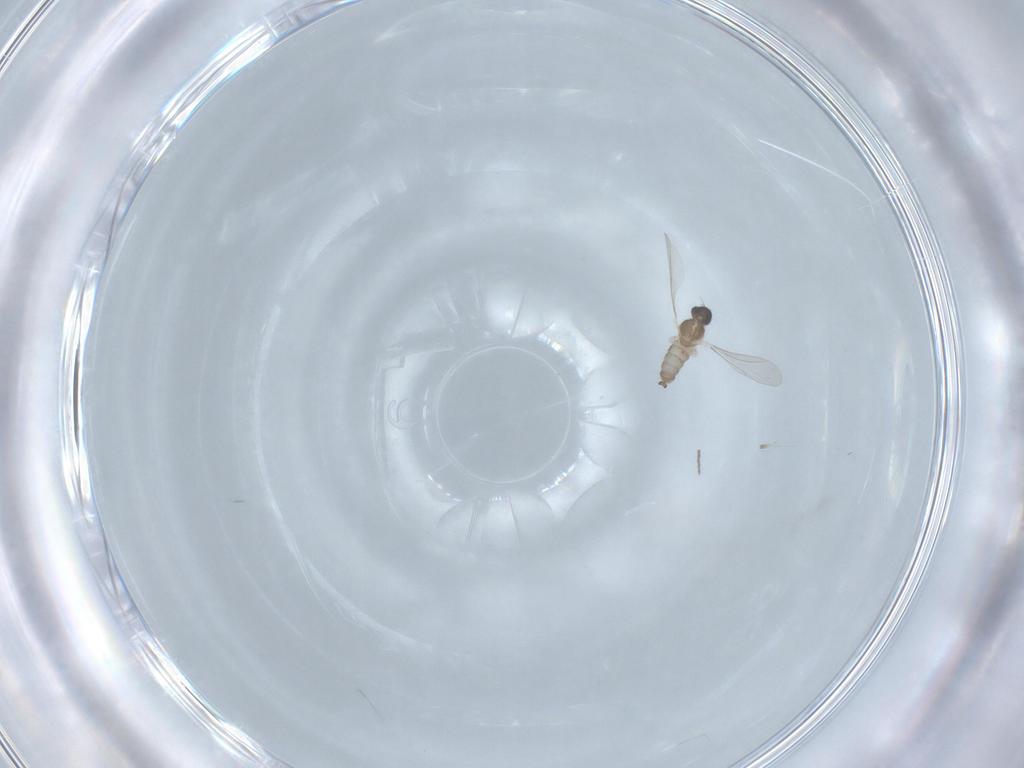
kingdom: Animalia
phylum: Arthropoda
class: Insecta
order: Diptera
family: Cecidomyiidae
